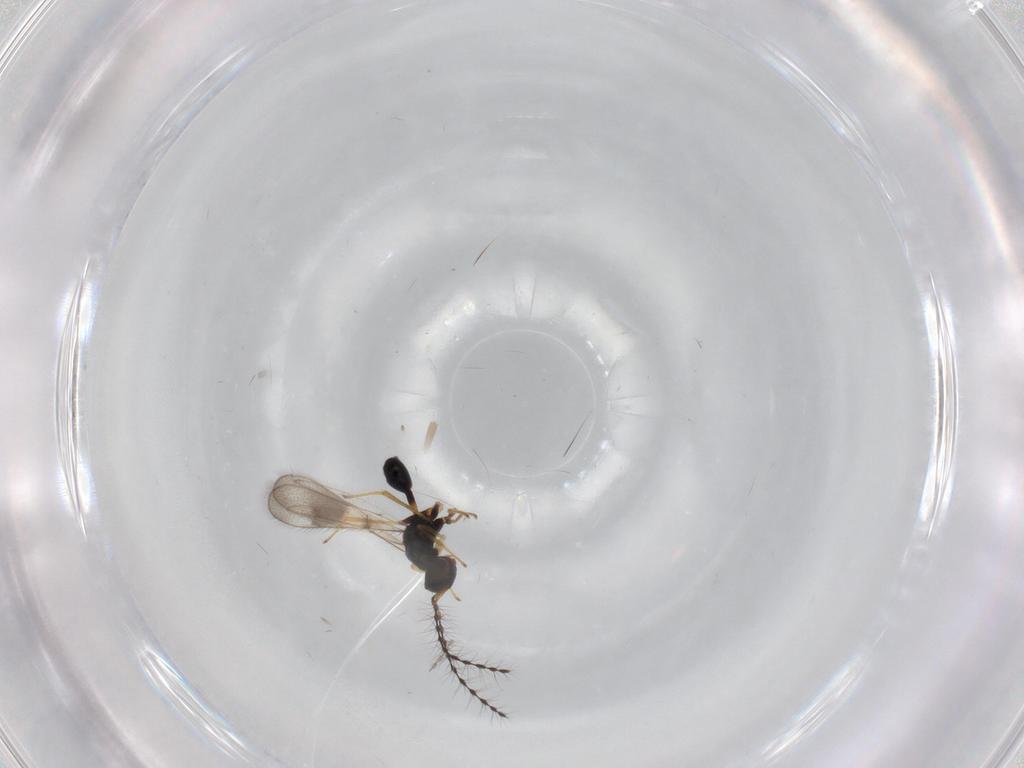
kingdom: Animalia
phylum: Arthropoda
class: Insecta
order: Hymenoptera
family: Diparidae
